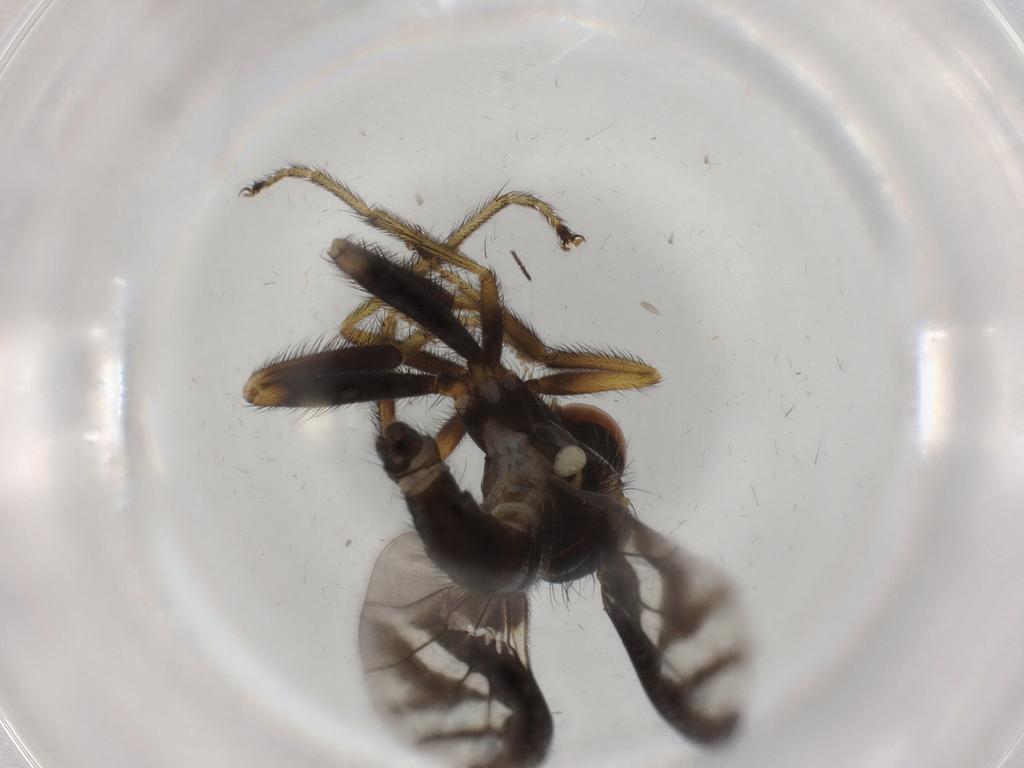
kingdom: Animalia
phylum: Arthropoda
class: Insecta
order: Diptera
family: Empididae
